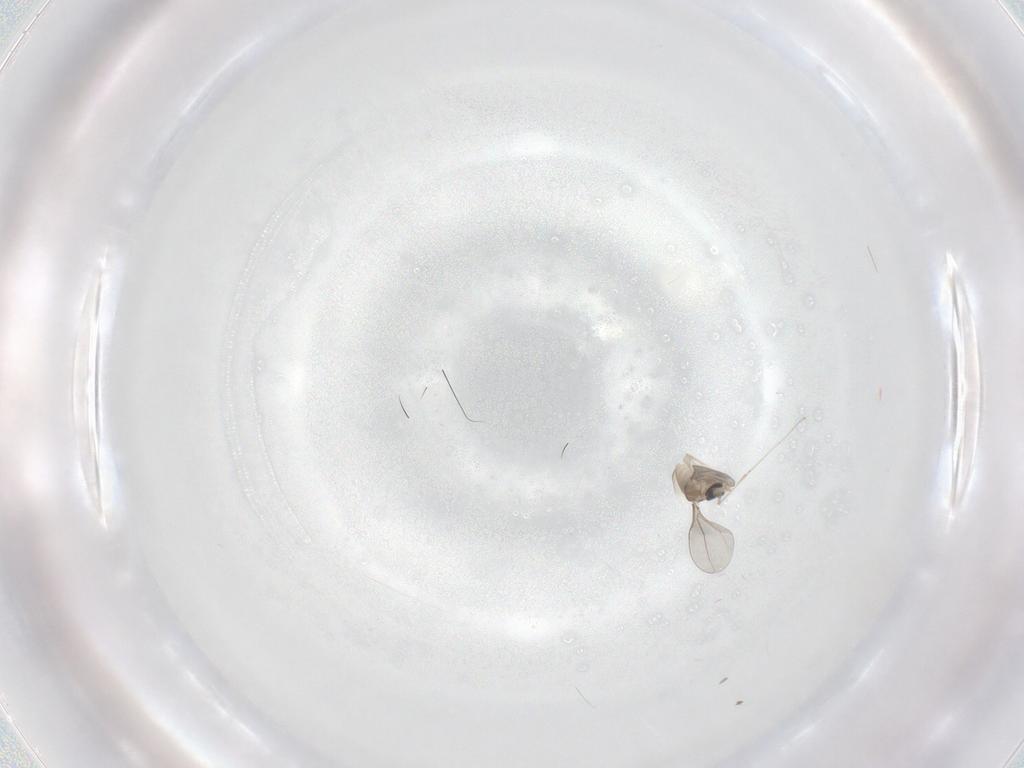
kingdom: Animalia
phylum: Arthropoda
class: Insecta
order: Diptera
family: Cecidomyiidae
